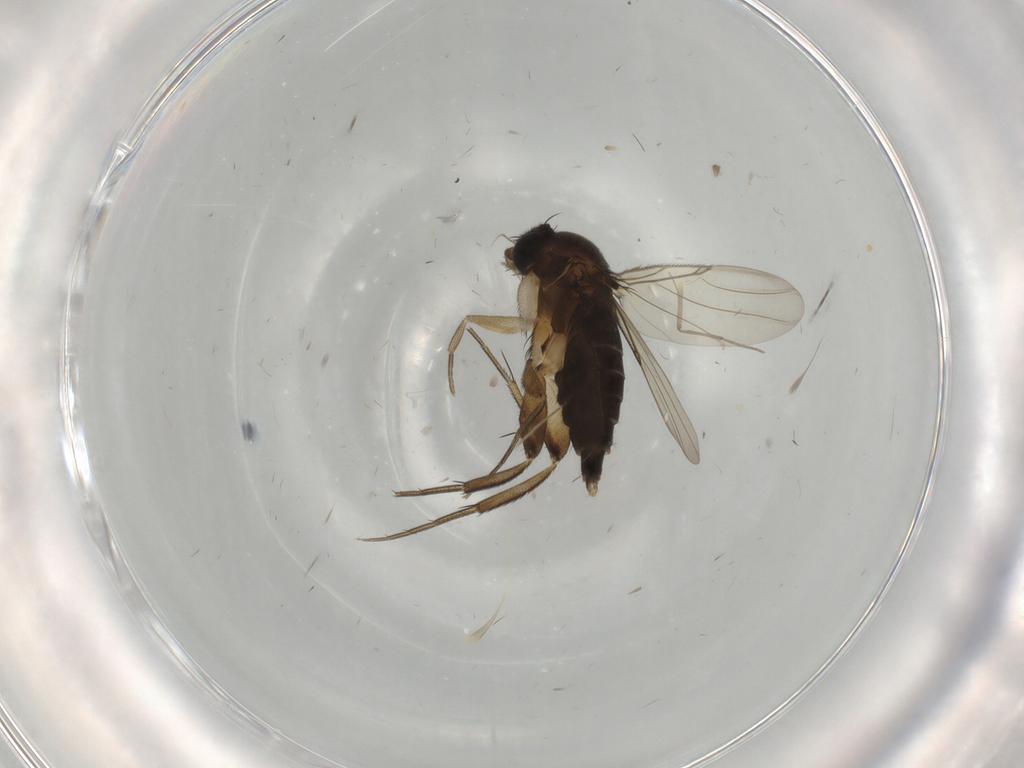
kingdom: Animalia
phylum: Arthropoda
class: Insecta
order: Diptera
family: Phoridae
